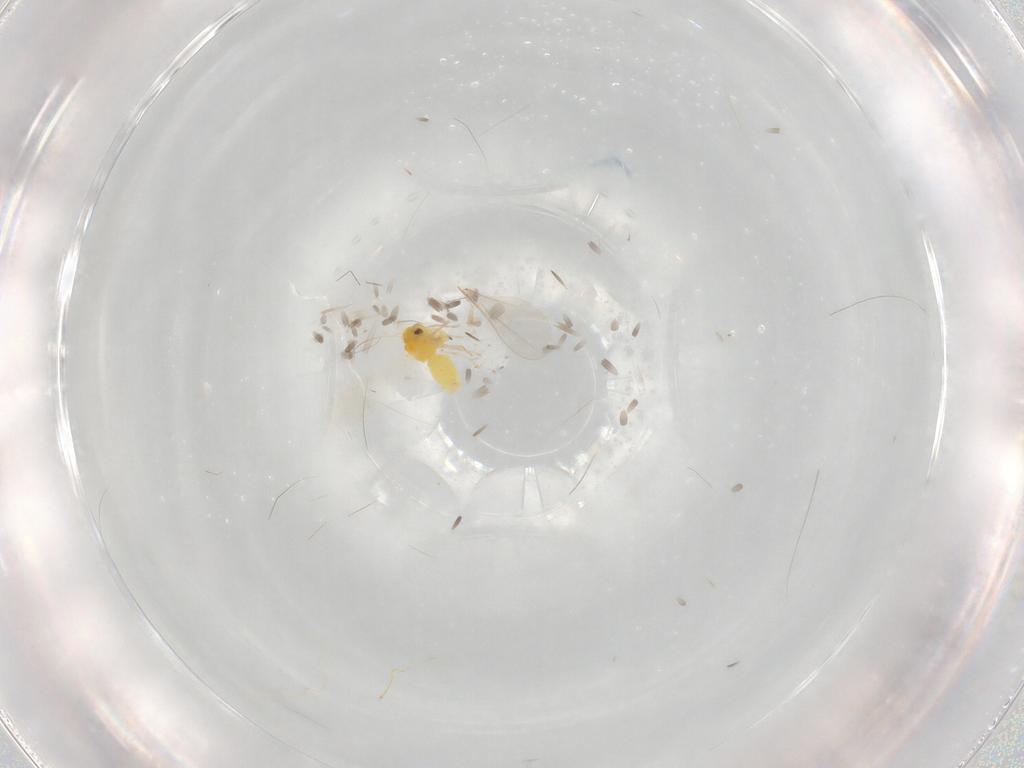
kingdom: Animalia
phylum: Arthropoda
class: Insecta
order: Hemiptera
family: Aleyrodidae
